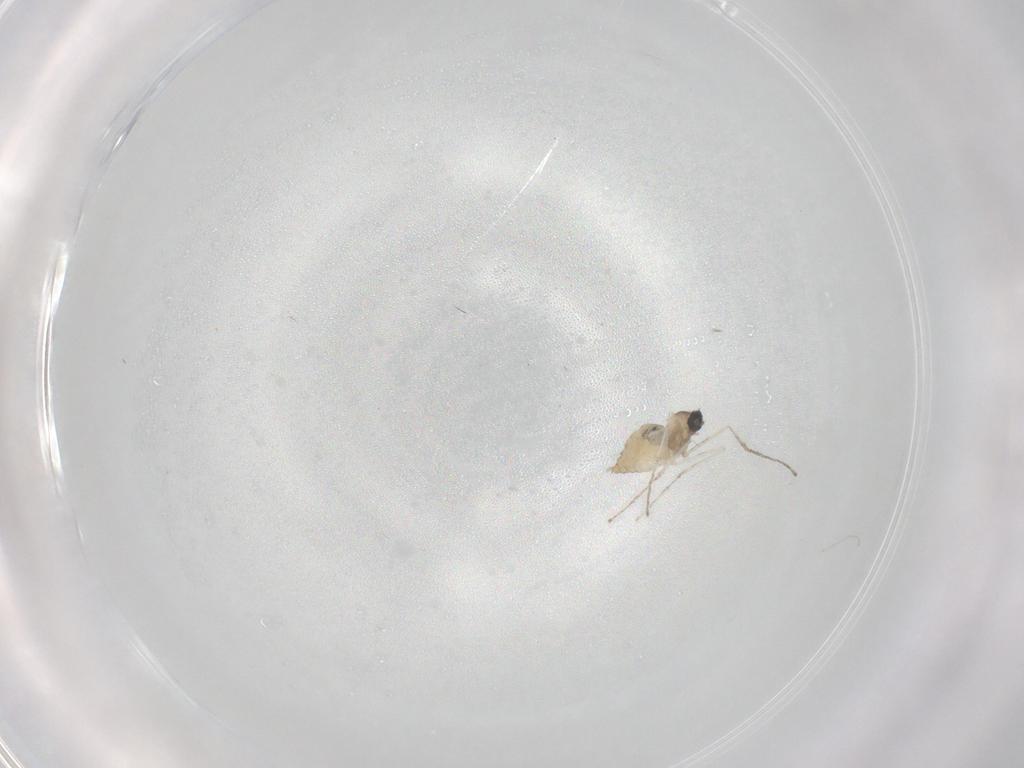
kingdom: Animalia
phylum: Arthropoda
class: Insecta
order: Diptera
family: Cecidomyiidae
